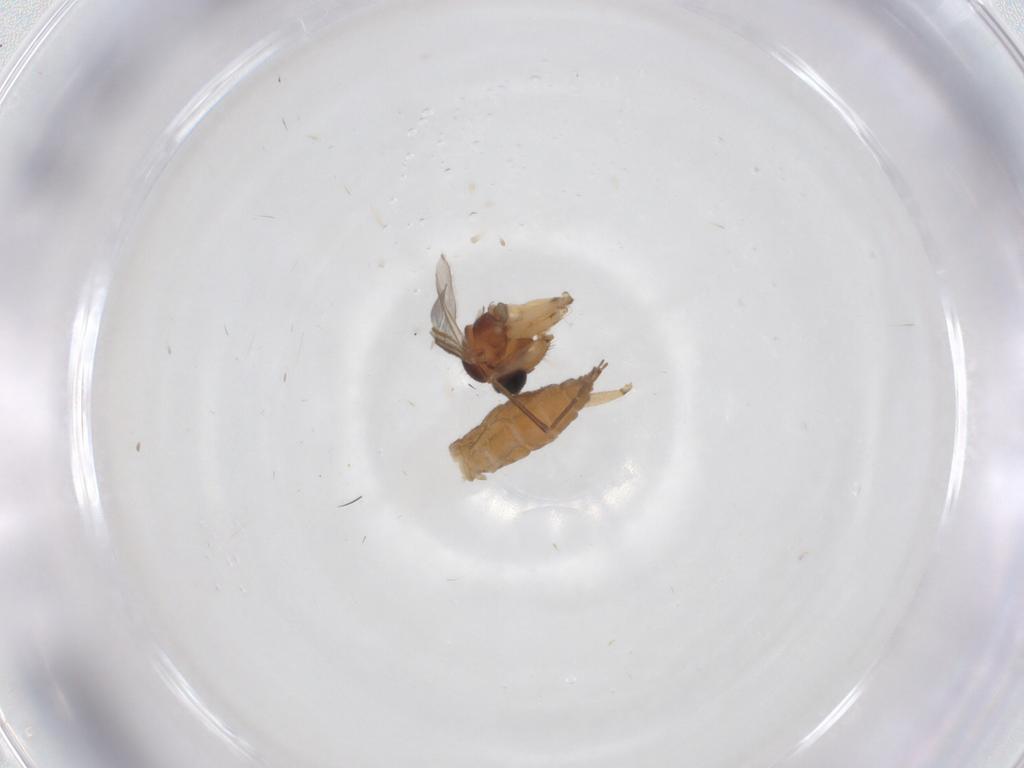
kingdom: Animalia
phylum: Arthropoda
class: Insecta
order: Diptera
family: Sciaridae
